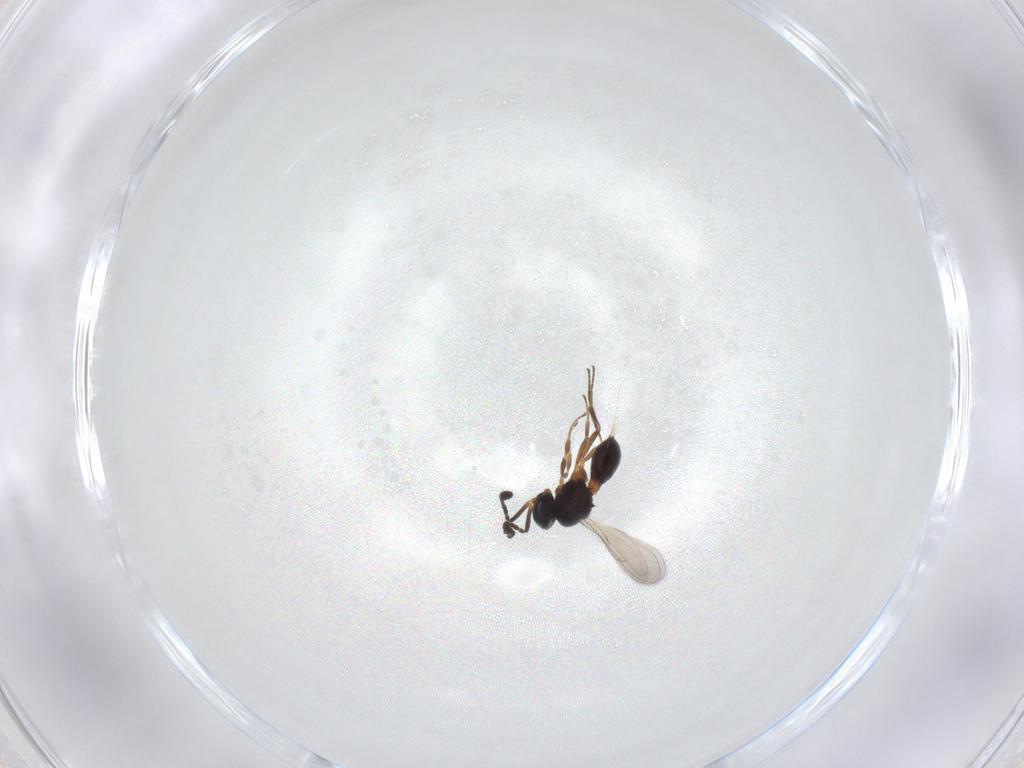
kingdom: Animalia
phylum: Arthropoda
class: Insecta
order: Hymenoptera
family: Scelionidae
